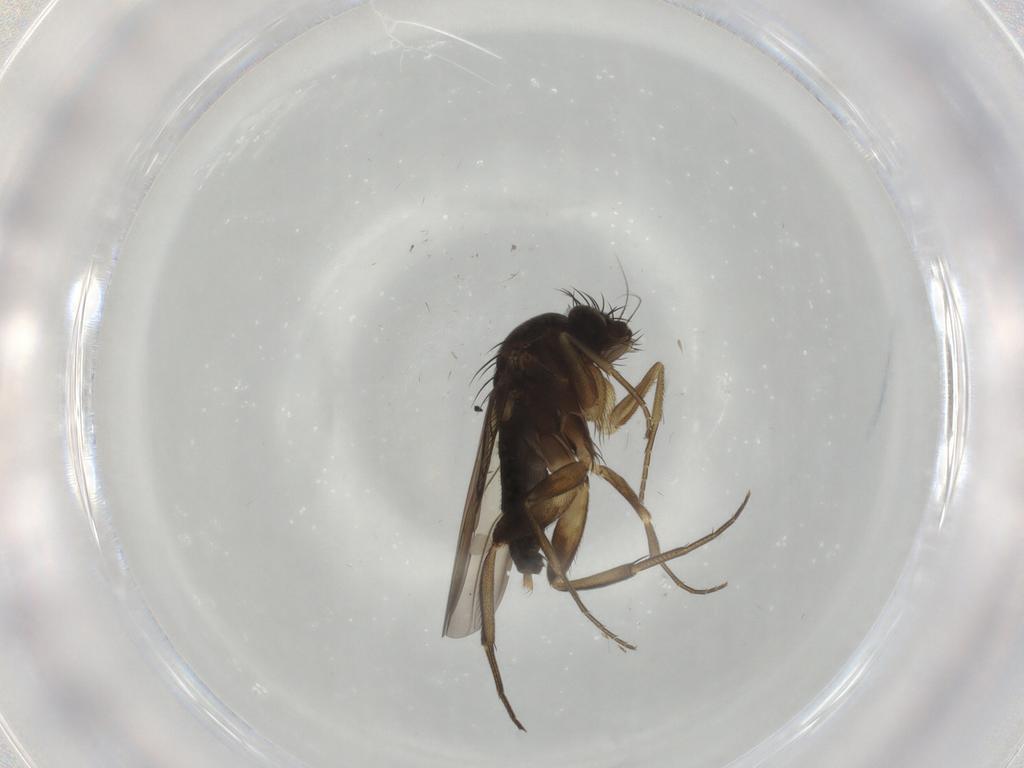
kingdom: Animalia
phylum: Arthropoda
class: Insecta
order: Diptera
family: Phoridae
